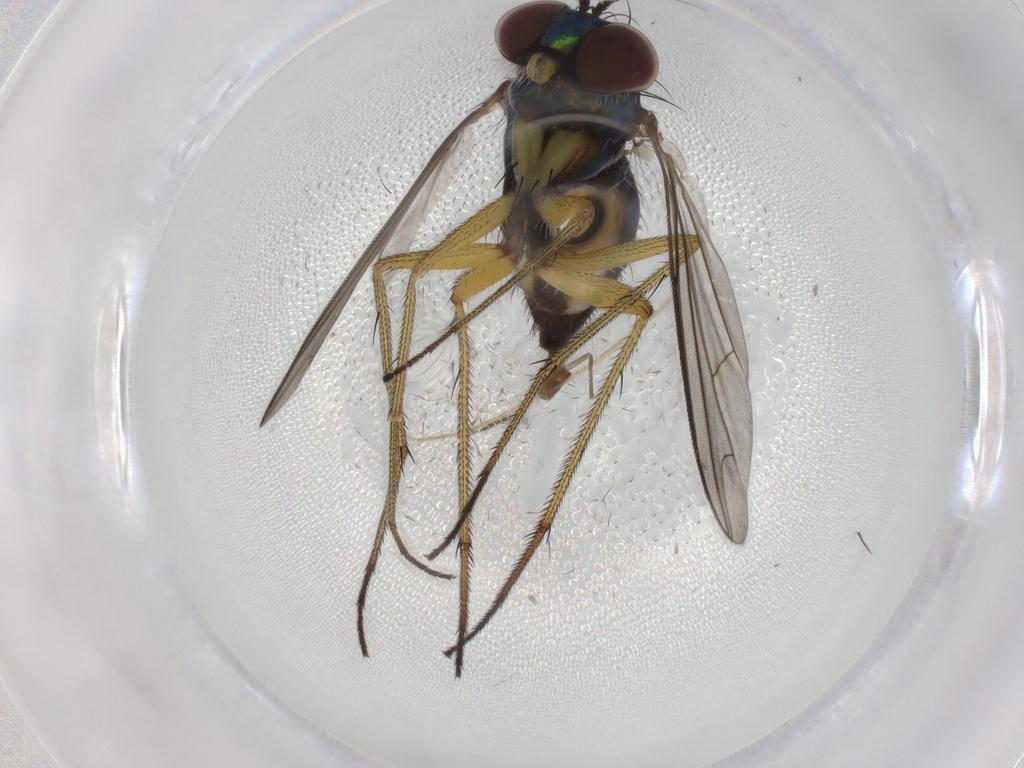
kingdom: Animalia
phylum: Arthropoda
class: Insecta
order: Diptera
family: Dolichopodidae
